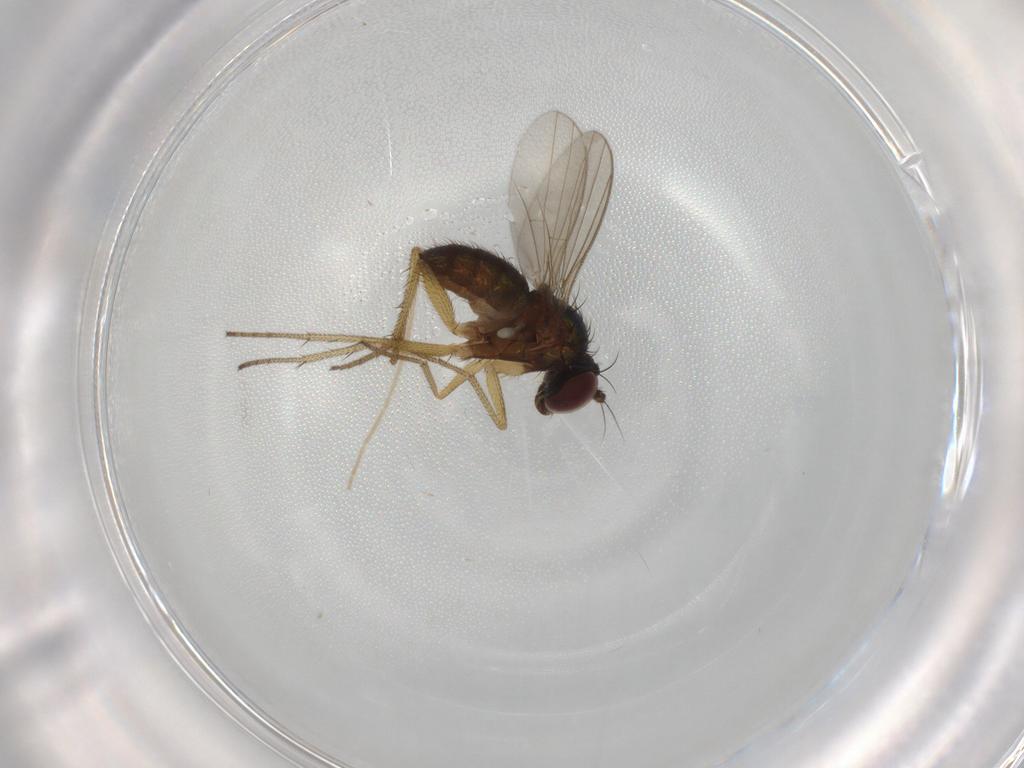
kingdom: Animalia
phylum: Arthropoda
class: Insecta
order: Diptera
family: Chironomidae
